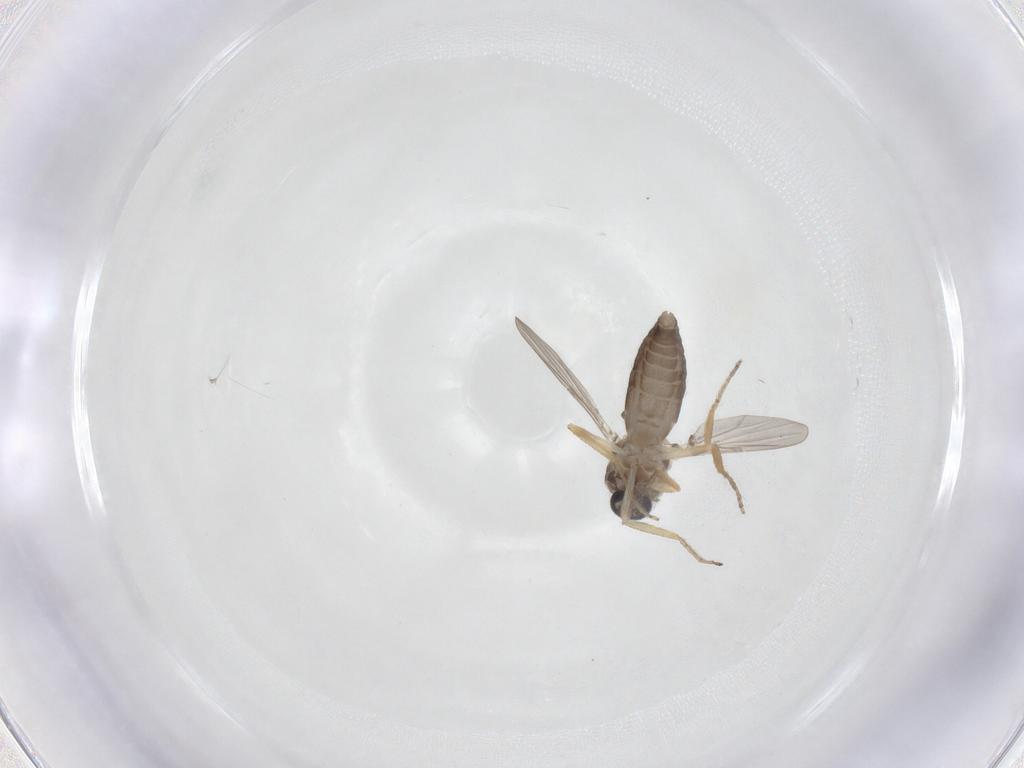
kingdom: Animalia
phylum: Arthropoda
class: Insecta
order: Diptera
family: Ceratopogonidae
